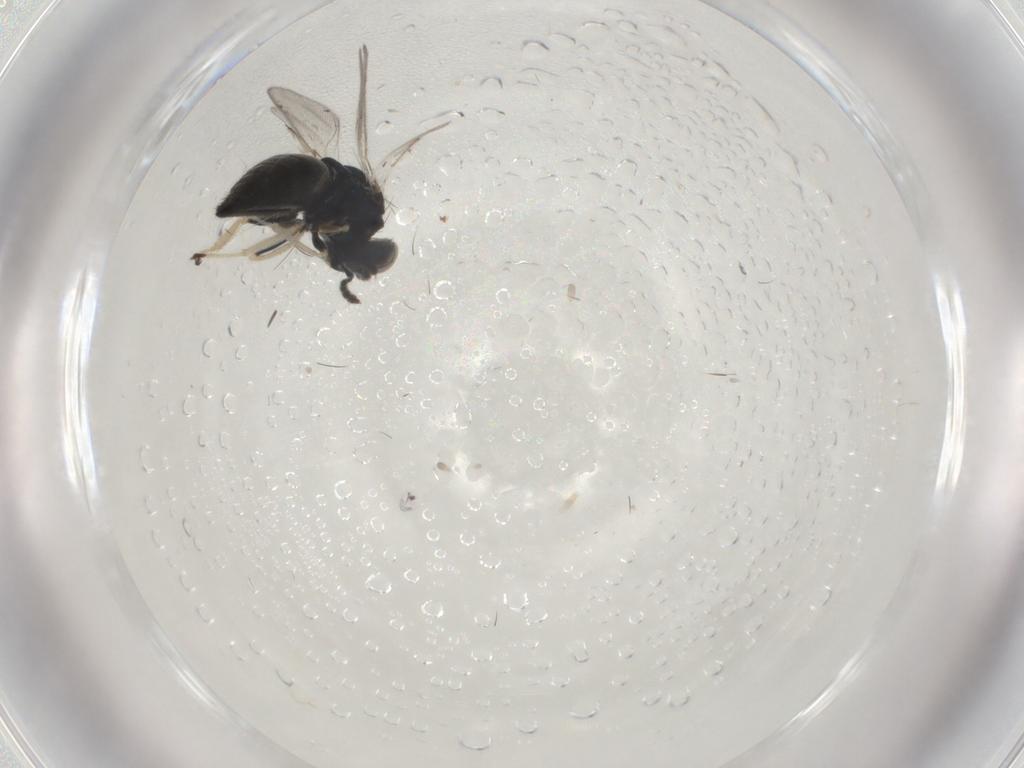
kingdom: Animalia
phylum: Arthropoda
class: Insecta
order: Hymenoptera
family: Eulophidae
